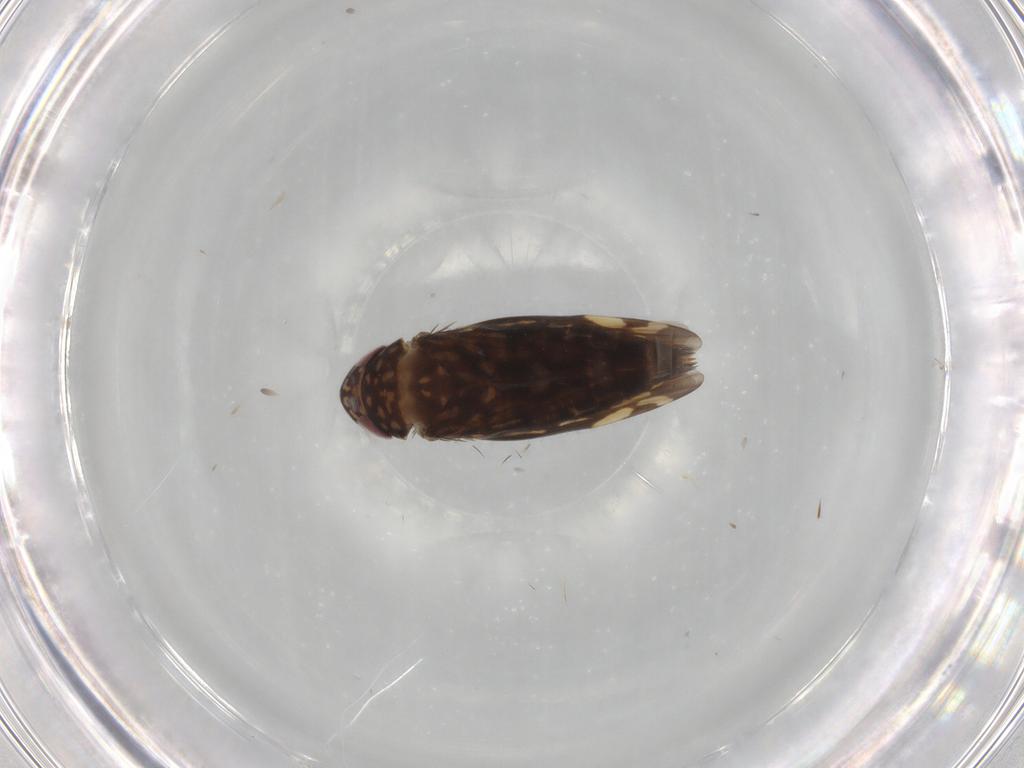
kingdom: Animalia
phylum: Arthropoda
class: Insecta
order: Hemiptera
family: Cicadellidae
